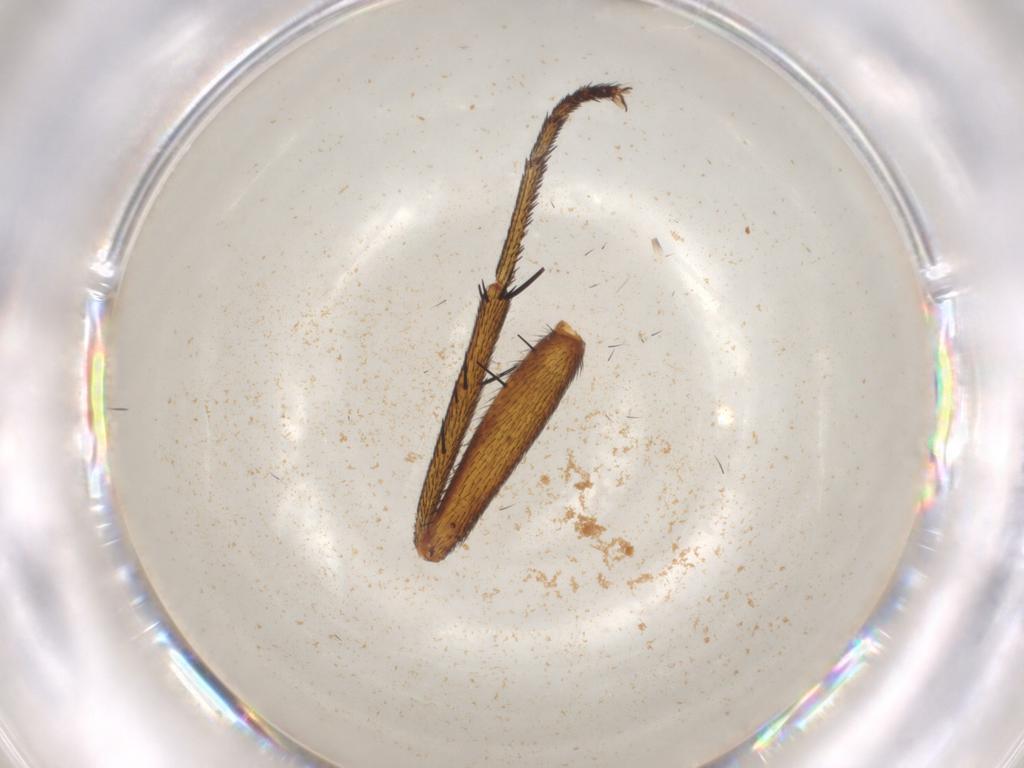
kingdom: Animalia
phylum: Arthropoda
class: Insecta
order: Diptera
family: Tachinidae
